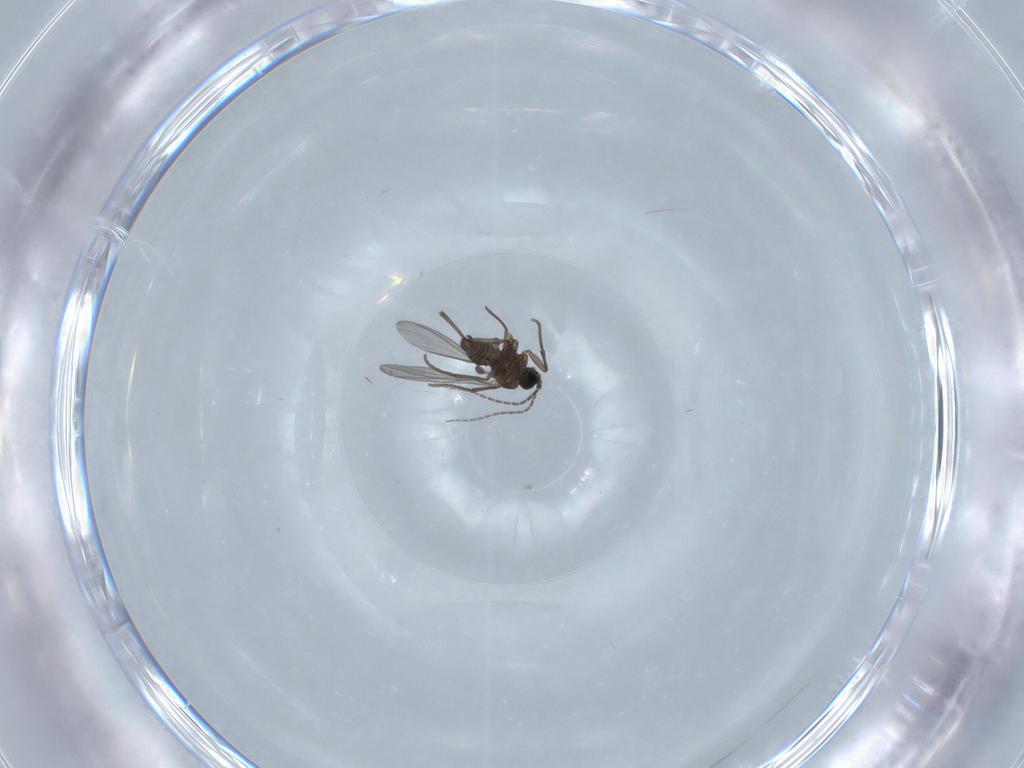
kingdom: Animalia
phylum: Arthropoda
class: Insecta
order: Diptera
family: Sciaridae
